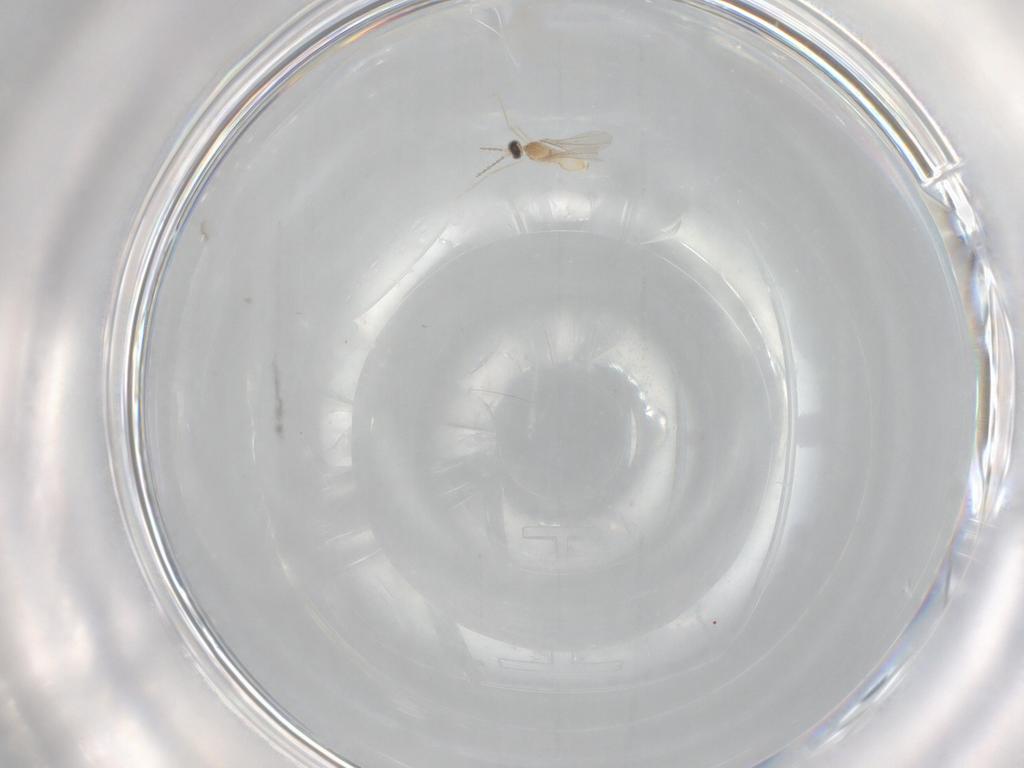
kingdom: Animalia
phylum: Arthropoda
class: Insecta
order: Diptera
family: Cecidomyiidae
